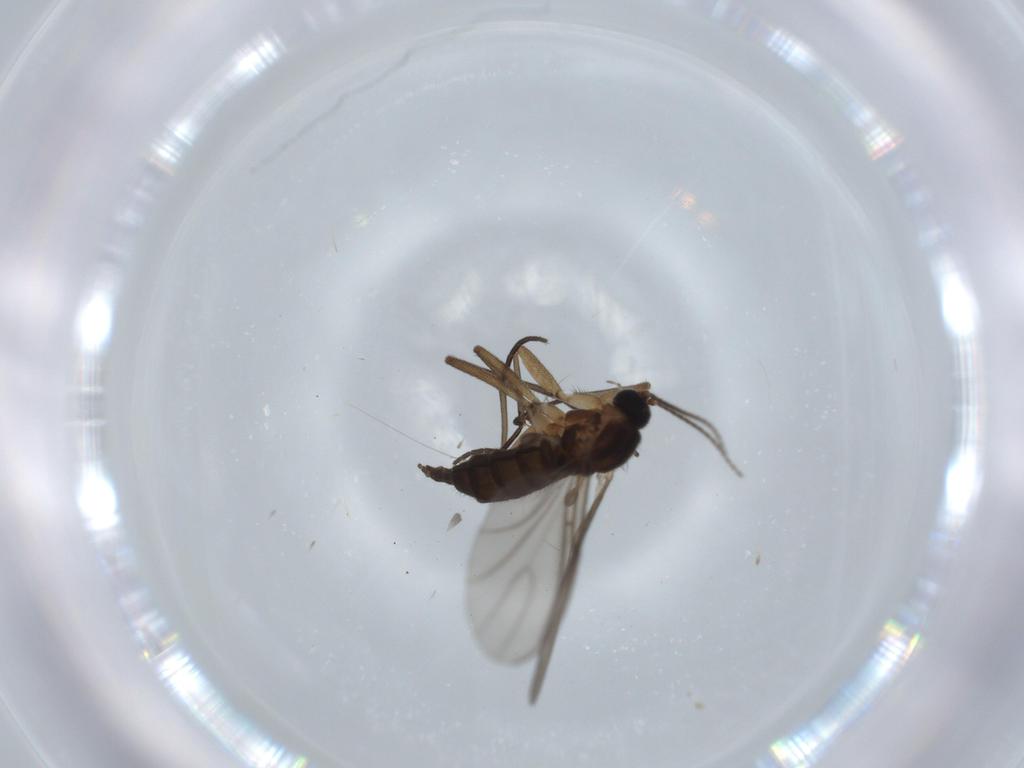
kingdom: Animalia
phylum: Arthropoda
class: Insecta
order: Diptera
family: Sciaridae
